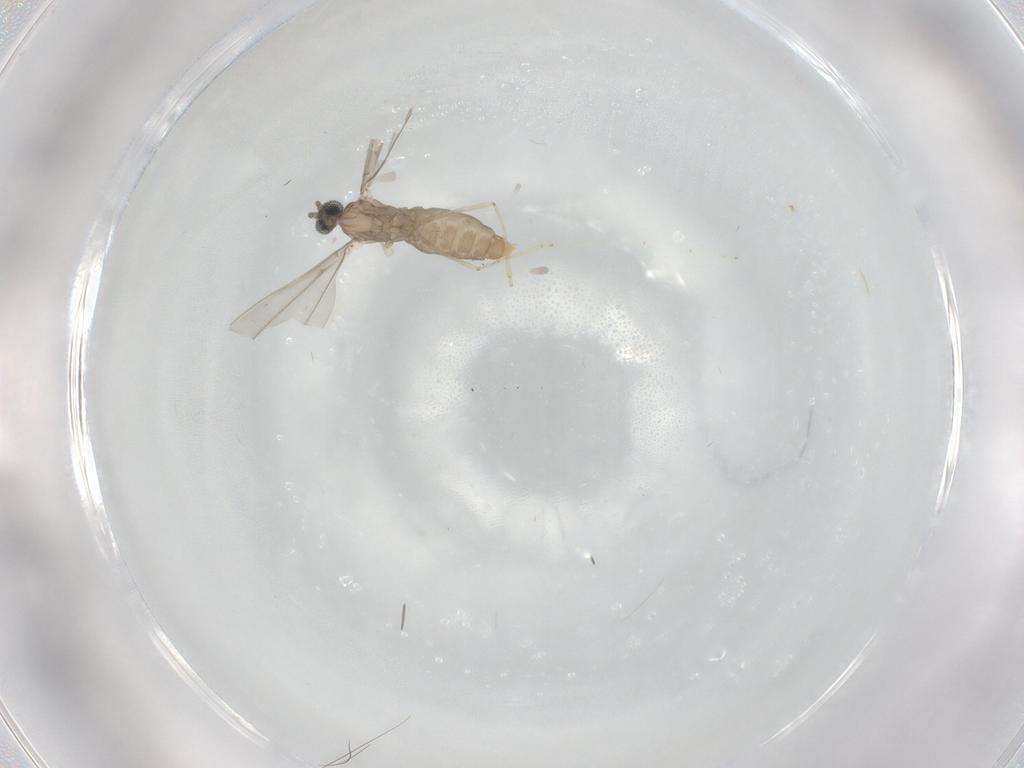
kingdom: Animalia
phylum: Arthropoda
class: Insecta
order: Diptera
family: Cecidomyiidae
